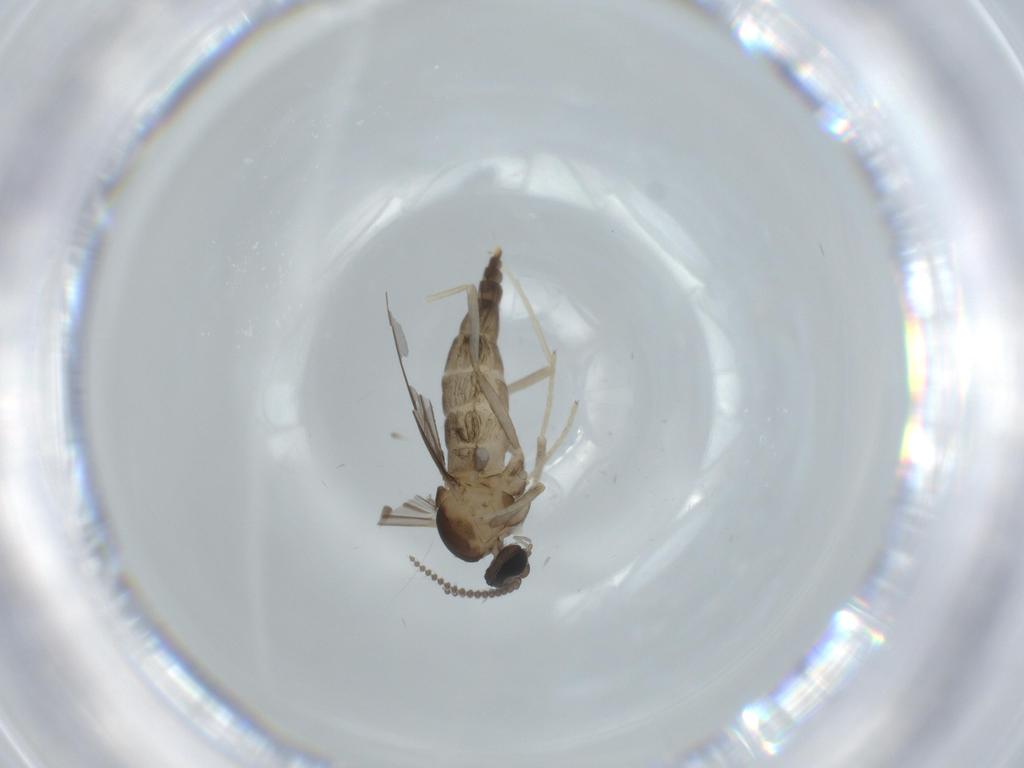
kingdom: Animalia
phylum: Arthropoda
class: Insecta
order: Diptera
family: Cecidomyiidae
